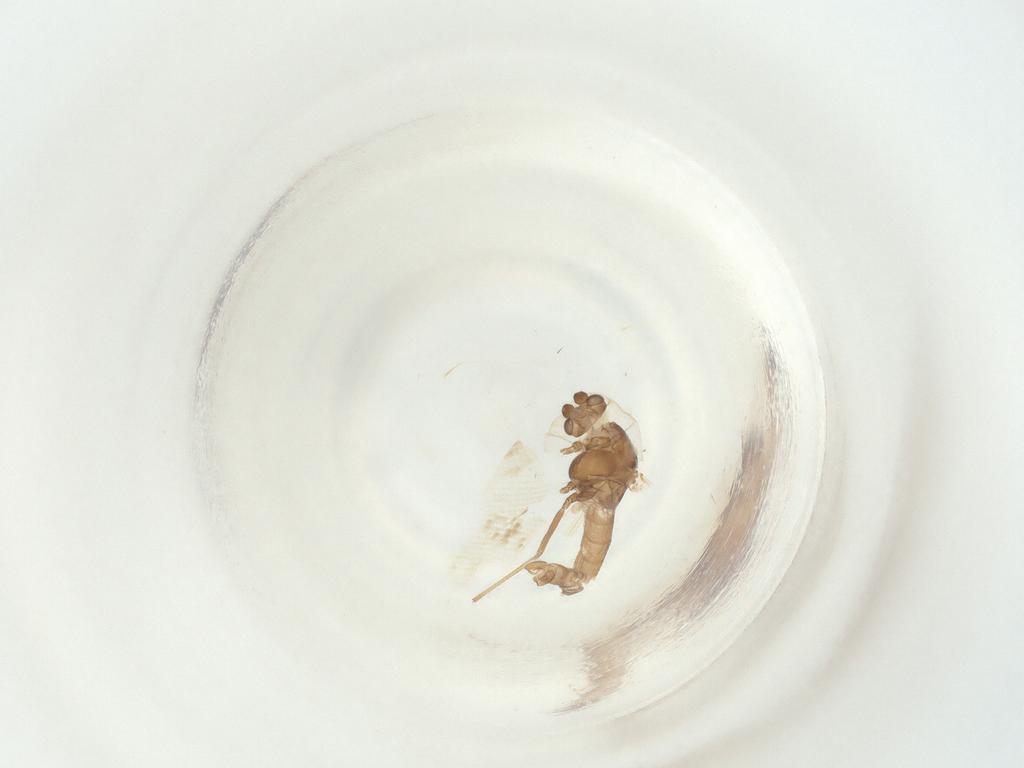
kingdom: Animalia
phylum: Arthropoda
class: Insecta
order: Diptera
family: Chironomidae
